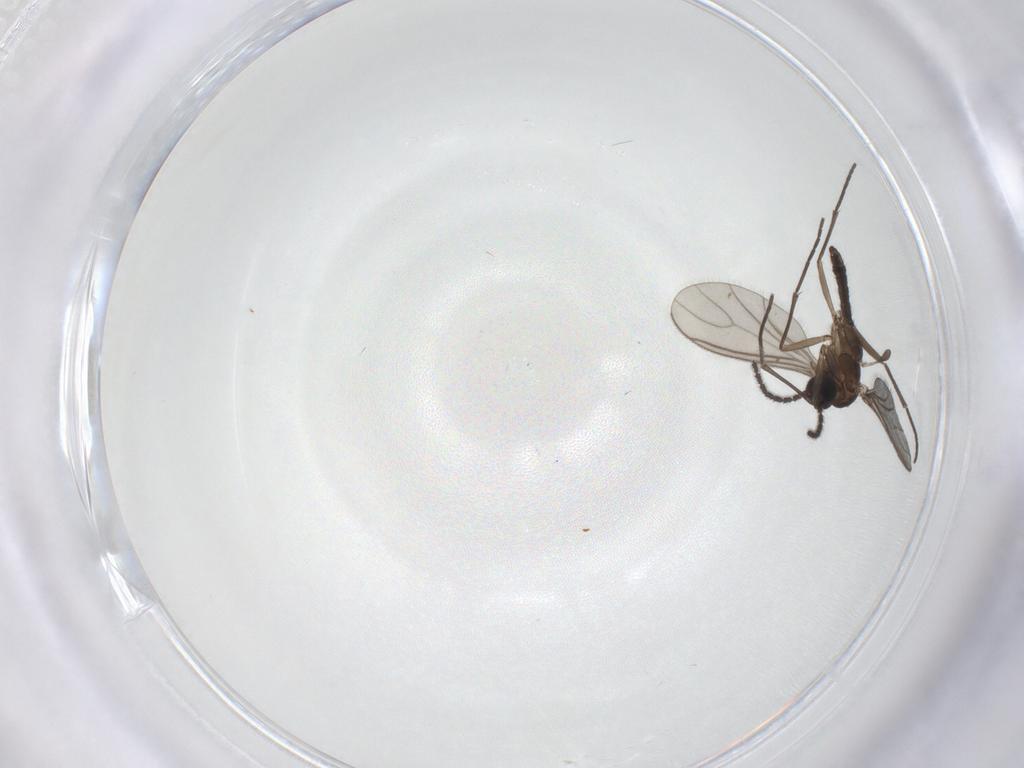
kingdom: Animalia
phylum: Arthropoda
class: Insecta
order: Diptera
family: Sciaridae
